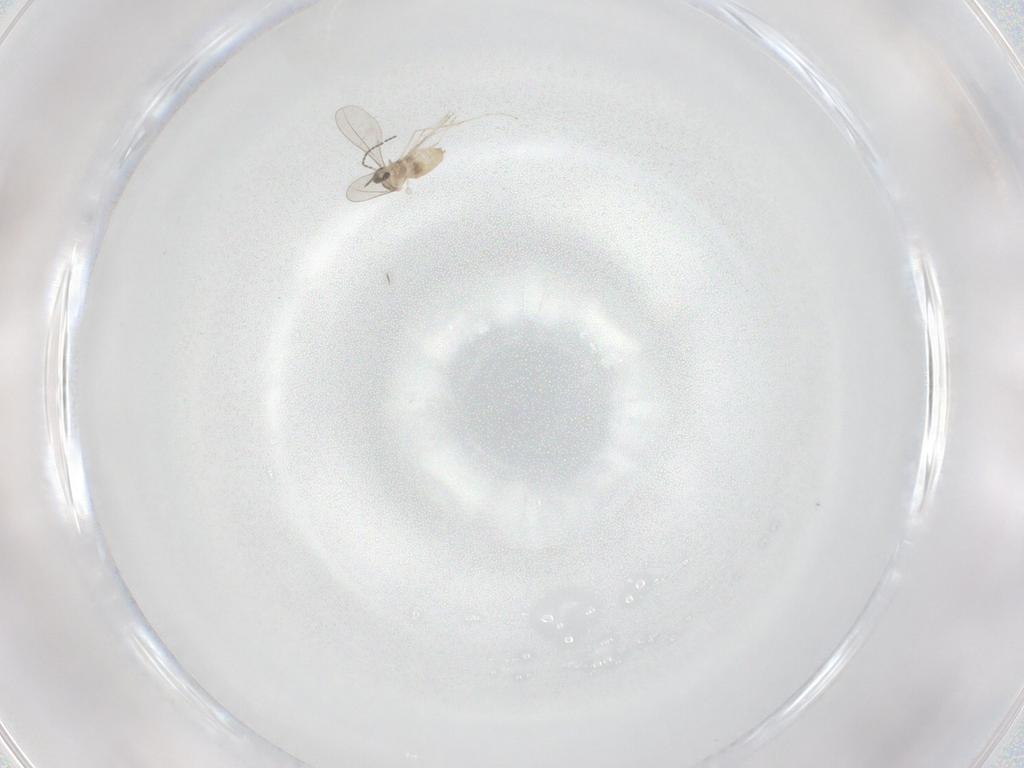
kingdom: Animalia
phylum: Arthropoda
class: Insecta
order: Diptera
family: Cecidomyiidae
